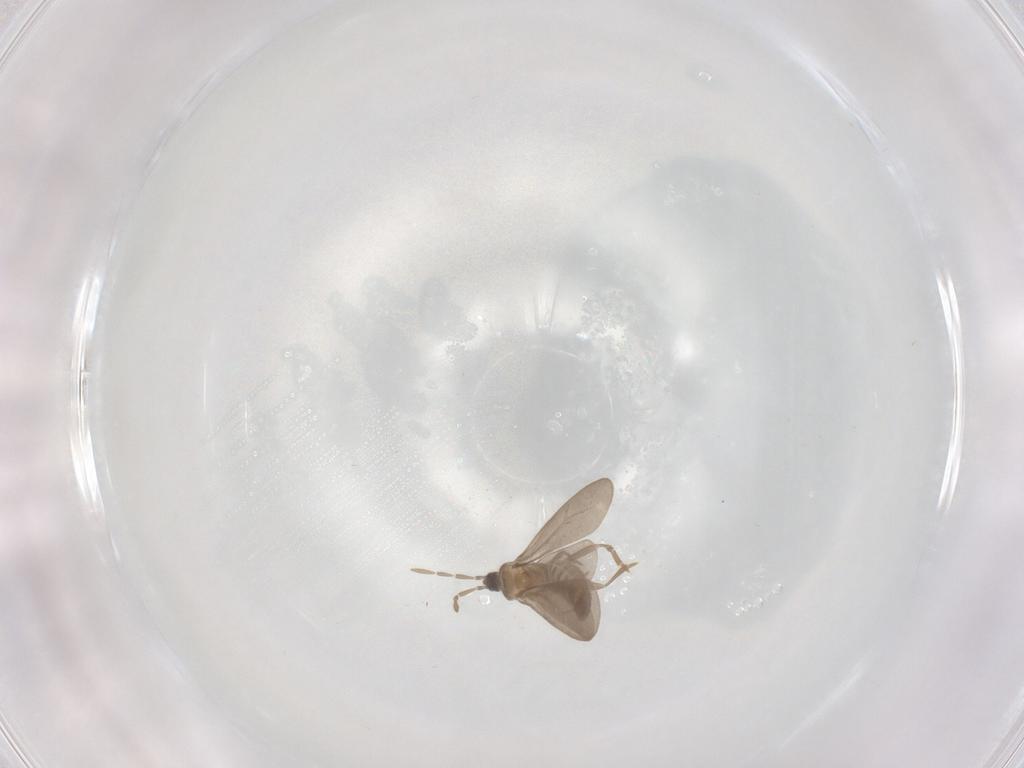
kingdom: Animalia
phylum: Arthropoda
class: Insecta
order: Hemiptera
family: Enicocephalidae
